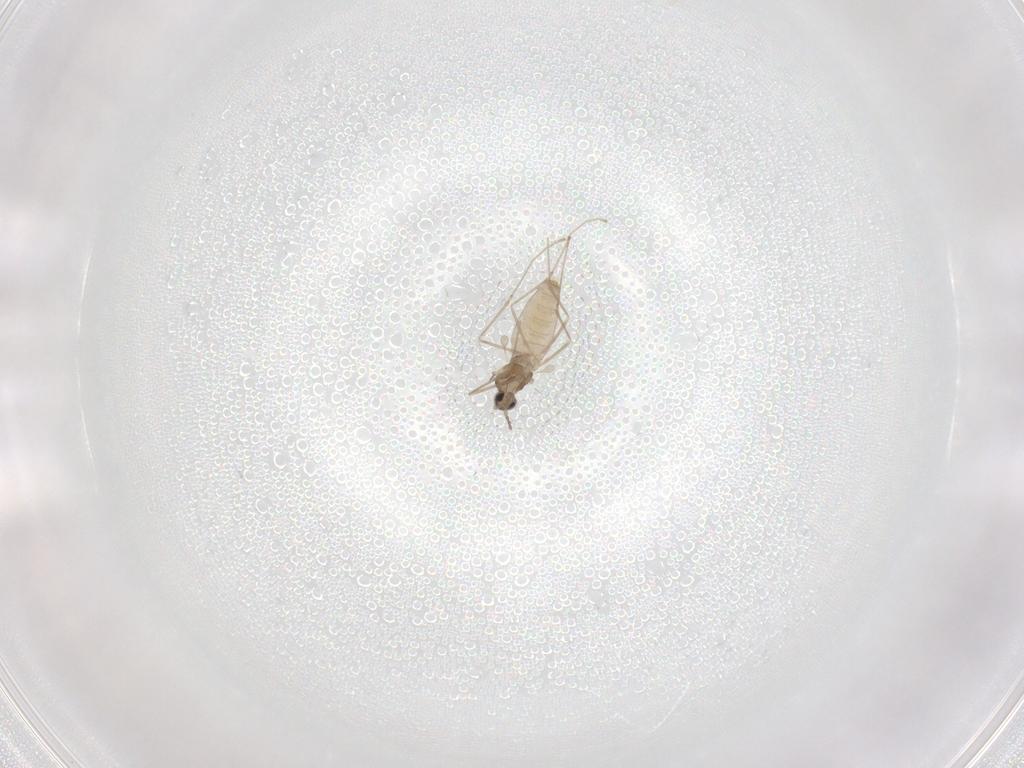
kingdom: Animalia
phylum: Arthropoda
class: Insecta
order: Diptera
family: Cecidomyiidae
